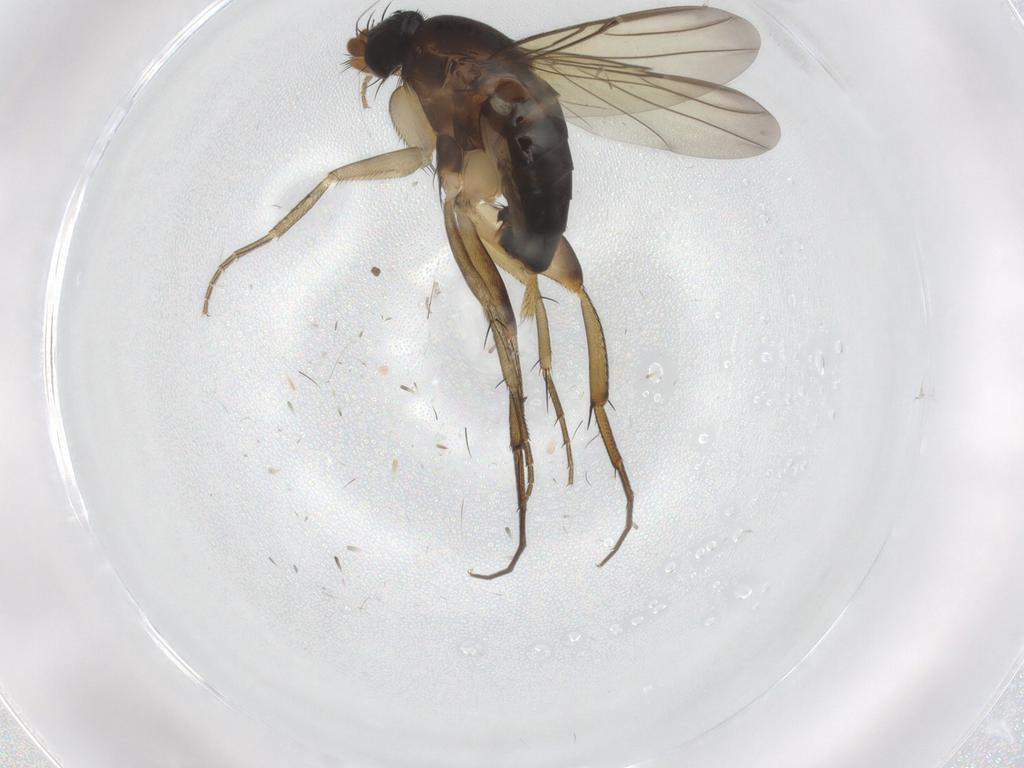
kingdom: Animalia
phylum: Arthropoda
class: Insecta
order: Diptera
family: Phoridae
